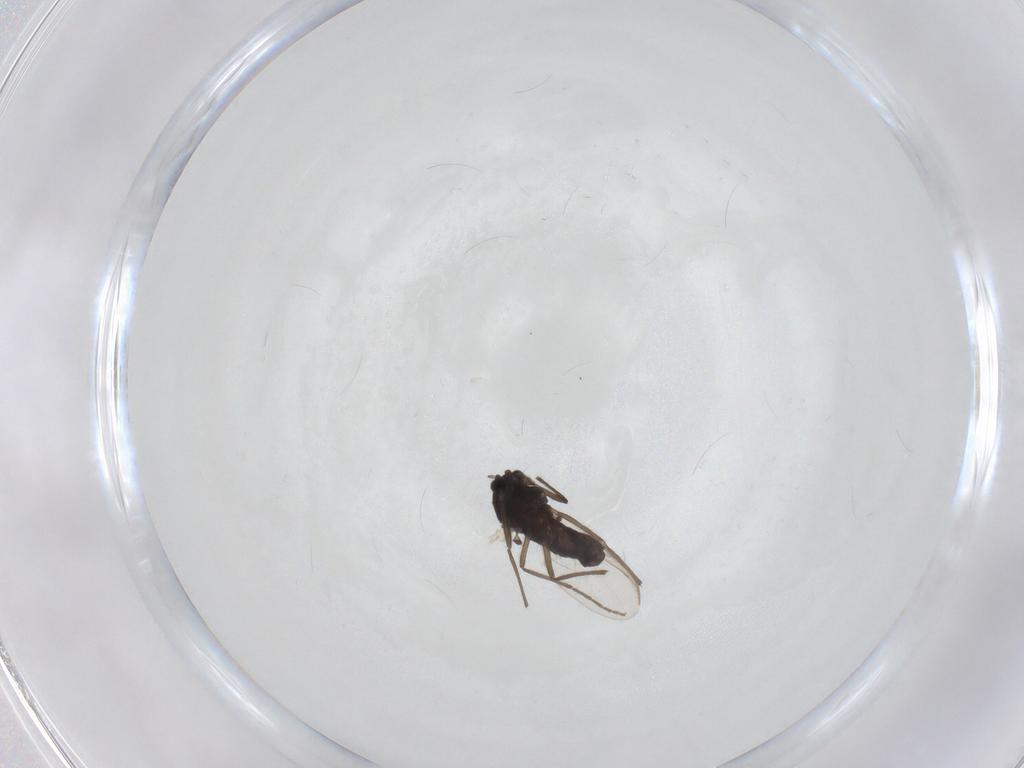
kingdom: Animalia
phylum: Arthropoda
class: Insecta
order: Diptera
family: Chironomidae
